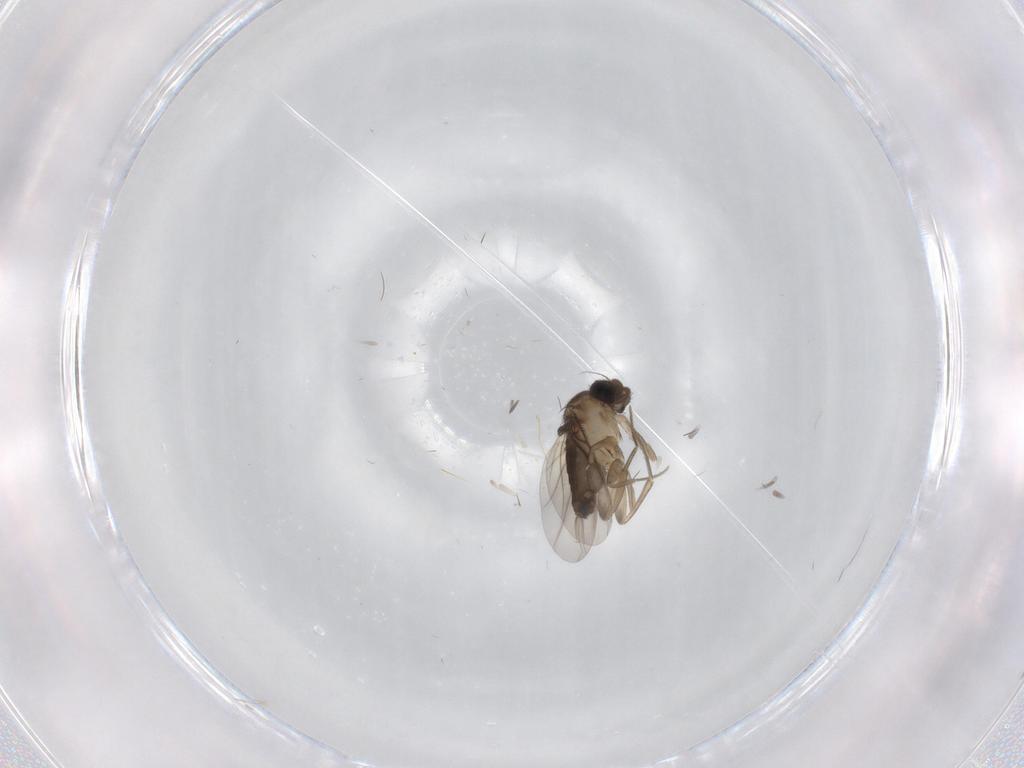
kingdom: Animalia
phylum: Arthropoda
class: Insecta
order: Diptera
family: Phoridae
